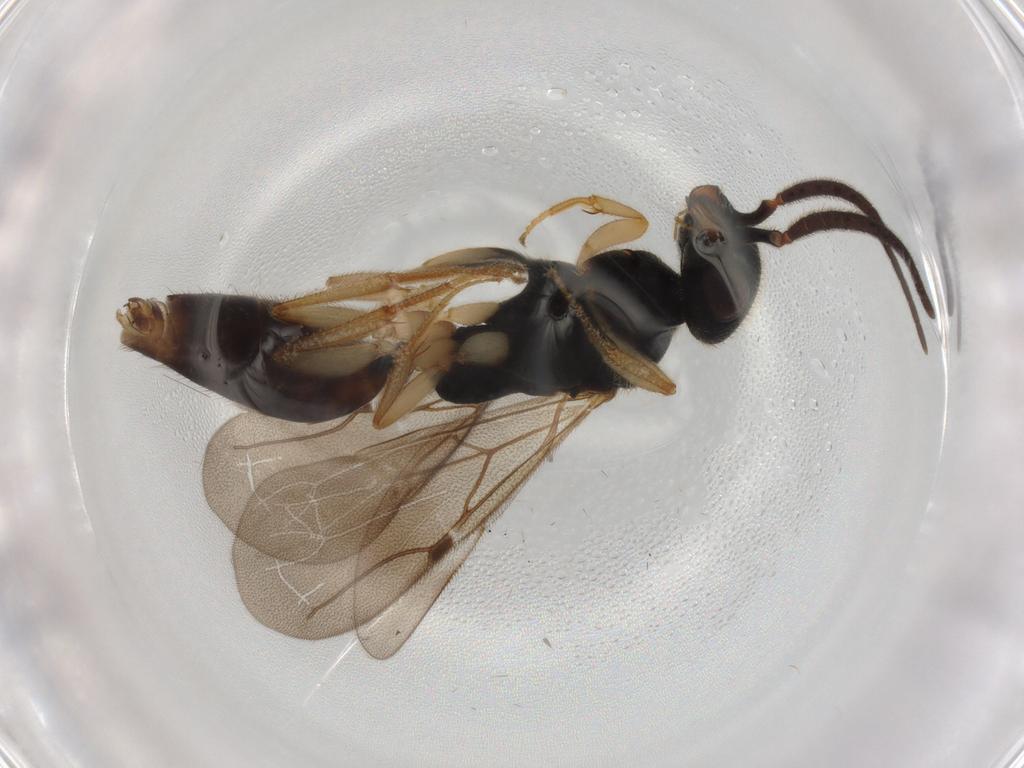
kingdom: Animalia
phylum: Arthropoda
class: Insecta
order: Hymenoptera
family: Bethylidae
